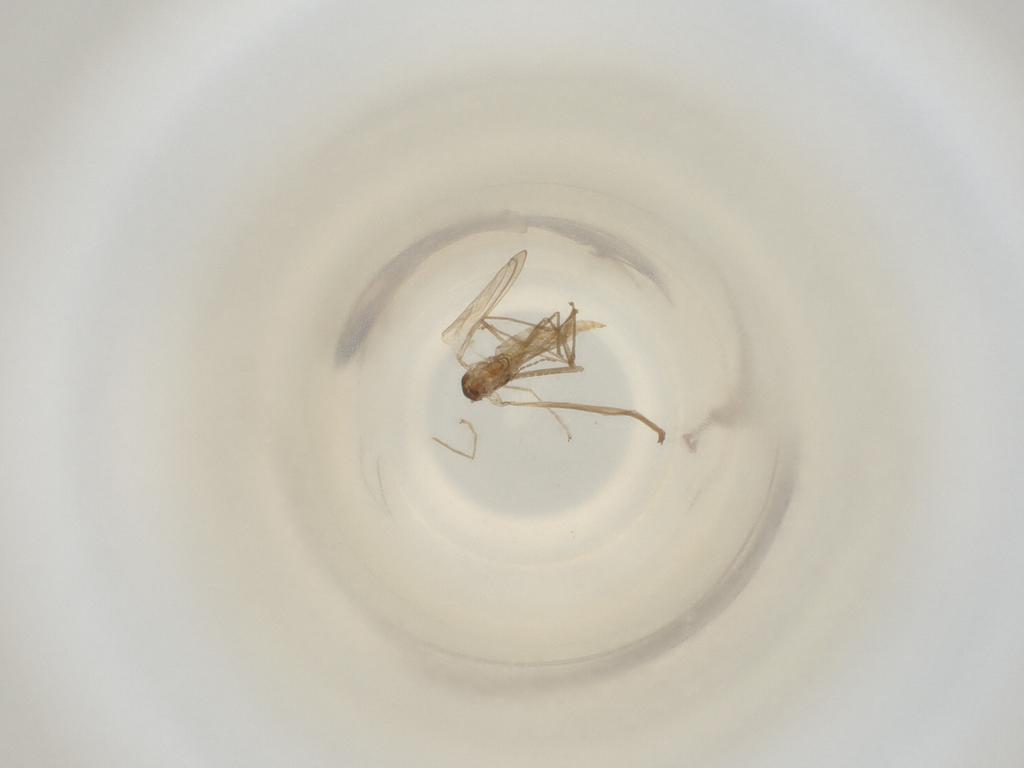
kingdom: Animalia
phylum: Arthropoda
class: Insecta
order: Diptera
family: Cecidomyiidae
